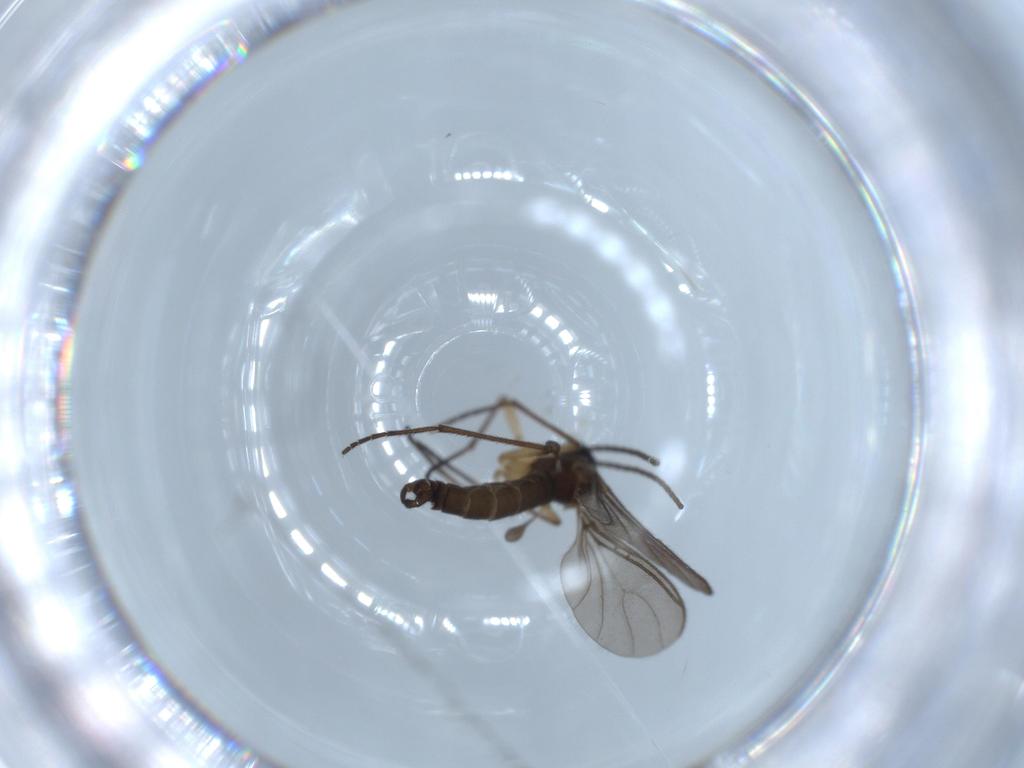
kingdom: Animalia
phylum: Arthropoda
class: Insecta
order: Diptera
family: Sciaridae
